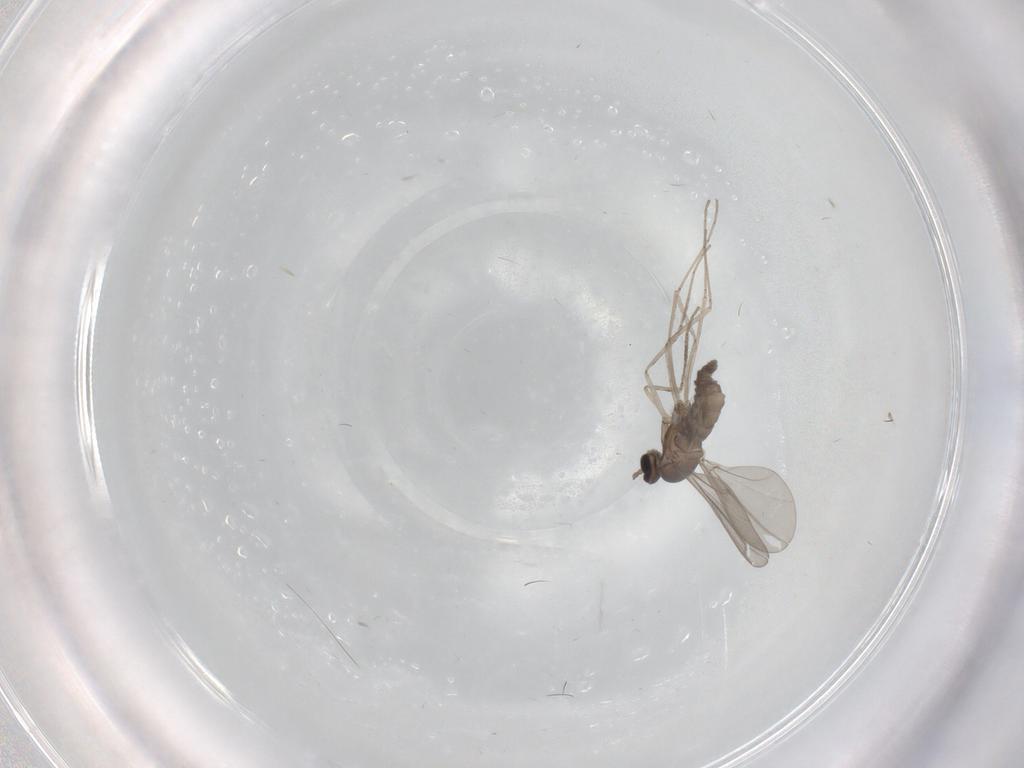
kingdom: Animalia
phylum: Arthropoda
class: Insecta
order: Diptera
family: Cecidomyiidae
